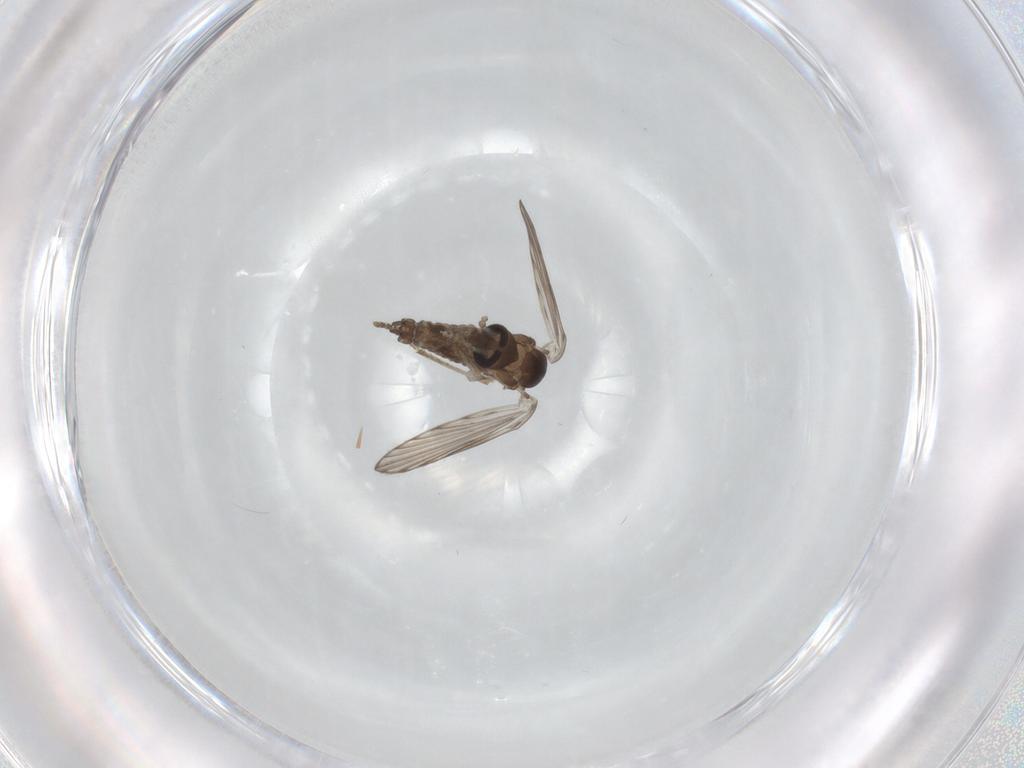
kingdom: Animalia
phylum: Arthropoda
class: Insecta
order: Diptera
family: Psychodidae
